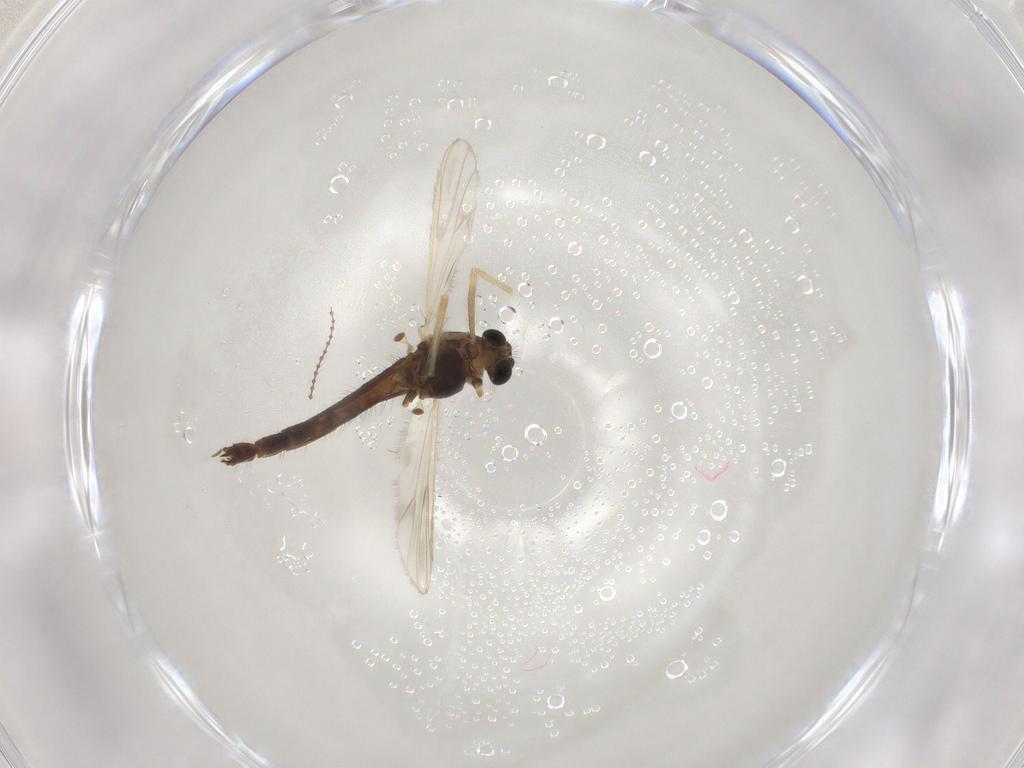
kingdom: Animalia
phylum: Arthropoda
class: Insecta
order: Diptera
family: Chironomidae
